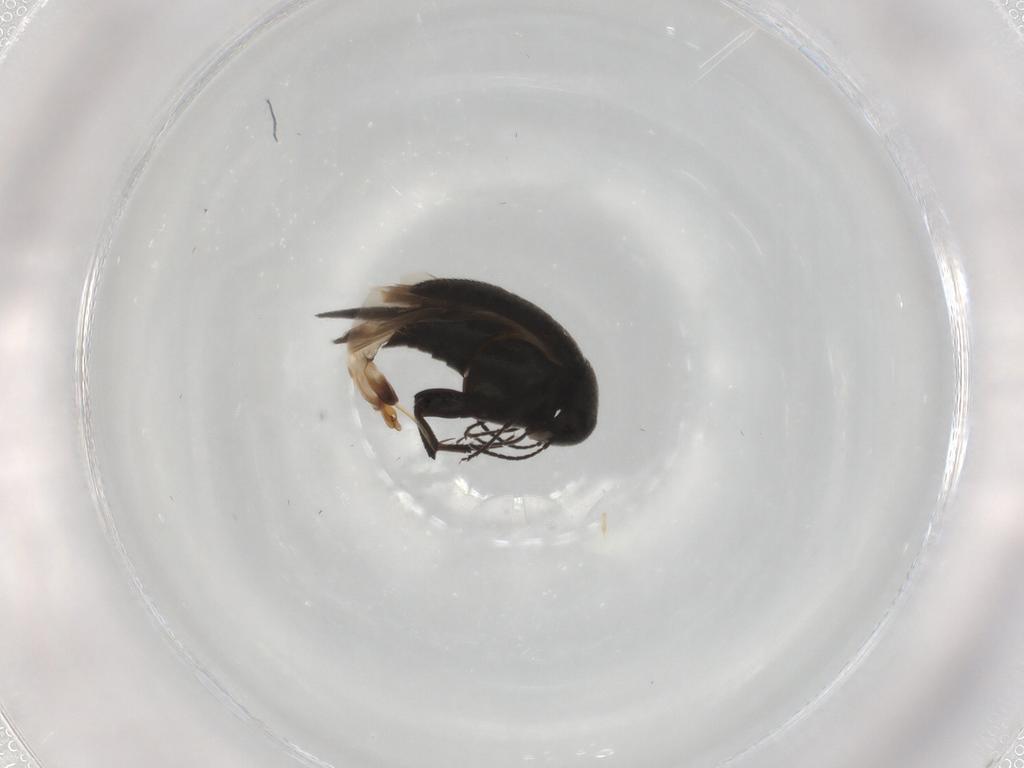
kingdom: Animalia
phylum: Arthropoda
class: Insecta
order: Coleoptera
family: Mordellidae
